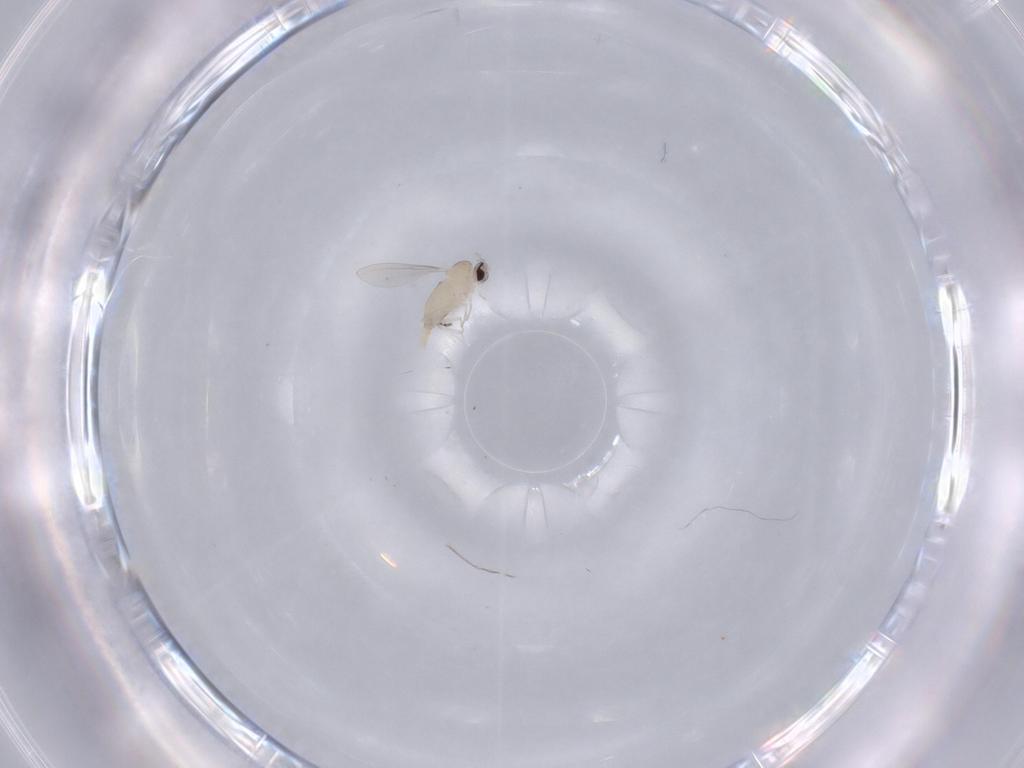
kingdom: Animalia
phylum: Arthropoda
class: Insecta
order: Diptera
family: Cecidomyiidae
